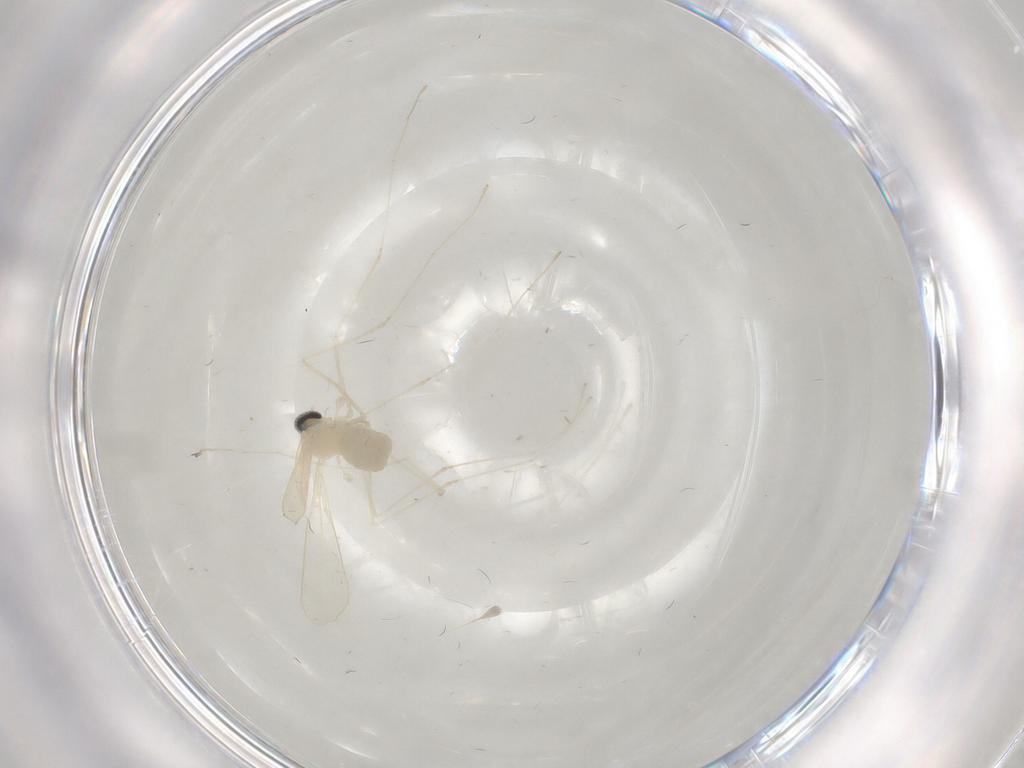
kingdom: Animalia
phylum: Arthropoda
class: Insecta
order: Diptera
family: Cecidomyiidae
